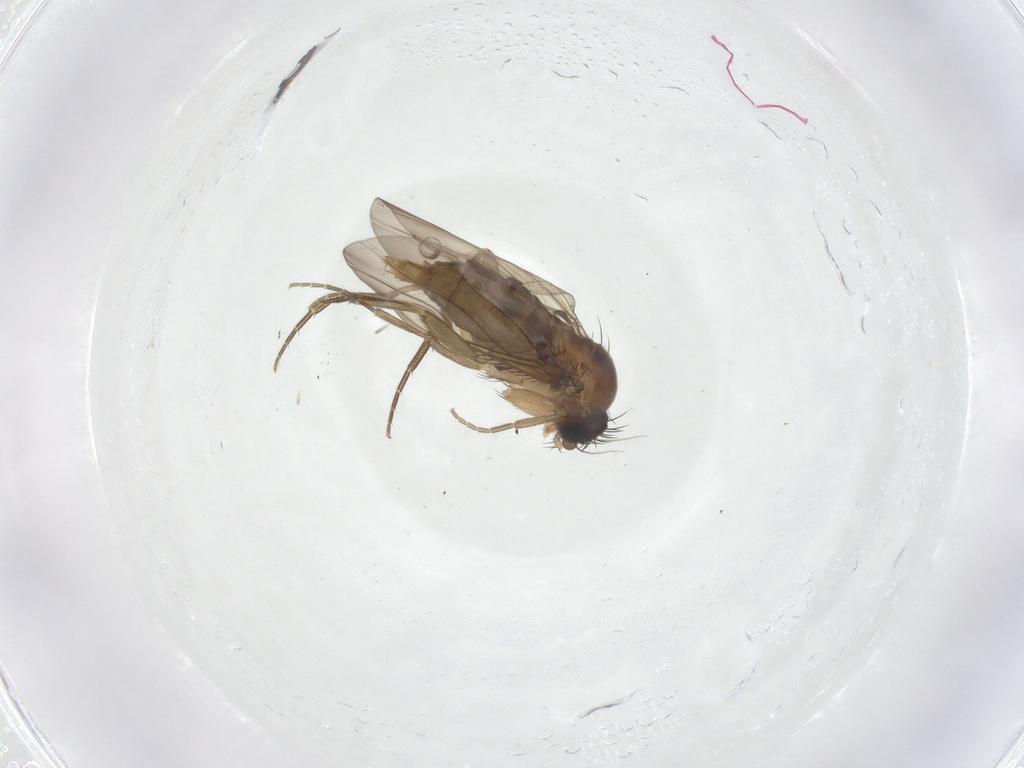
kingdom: Animalia
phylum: Arthropoda
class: Insecta
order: Diptera
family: Phoridae
